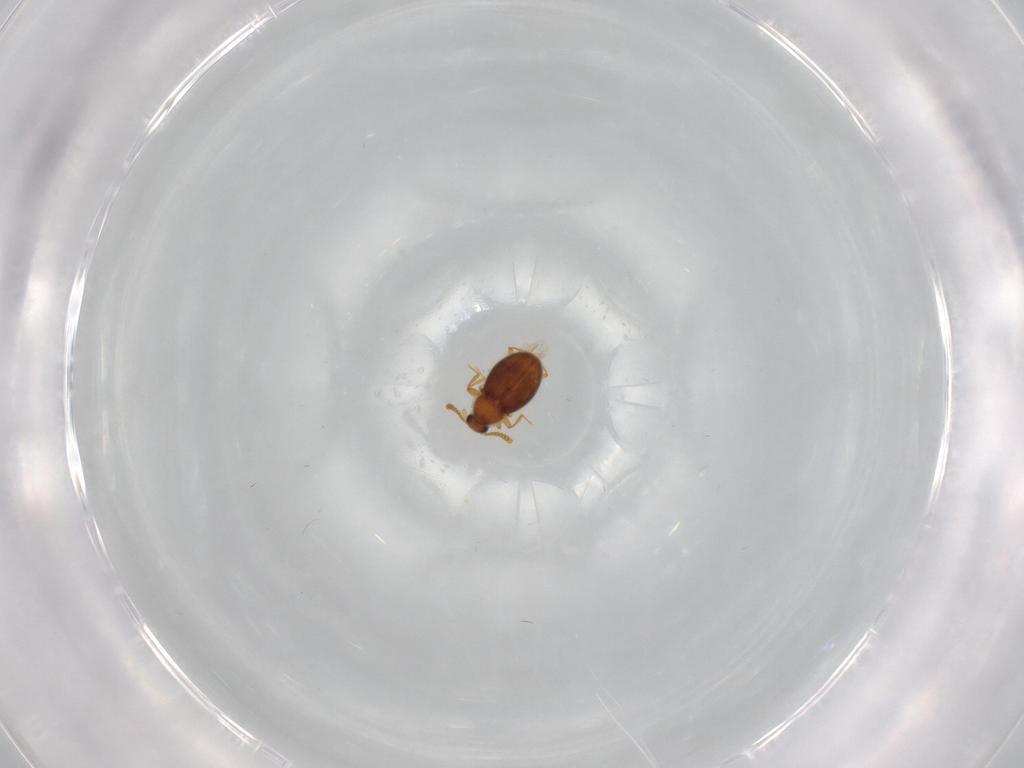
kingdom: Animalia
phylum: Arthropoda
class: Insecta
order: Coleoptera
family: Staphylinidae
